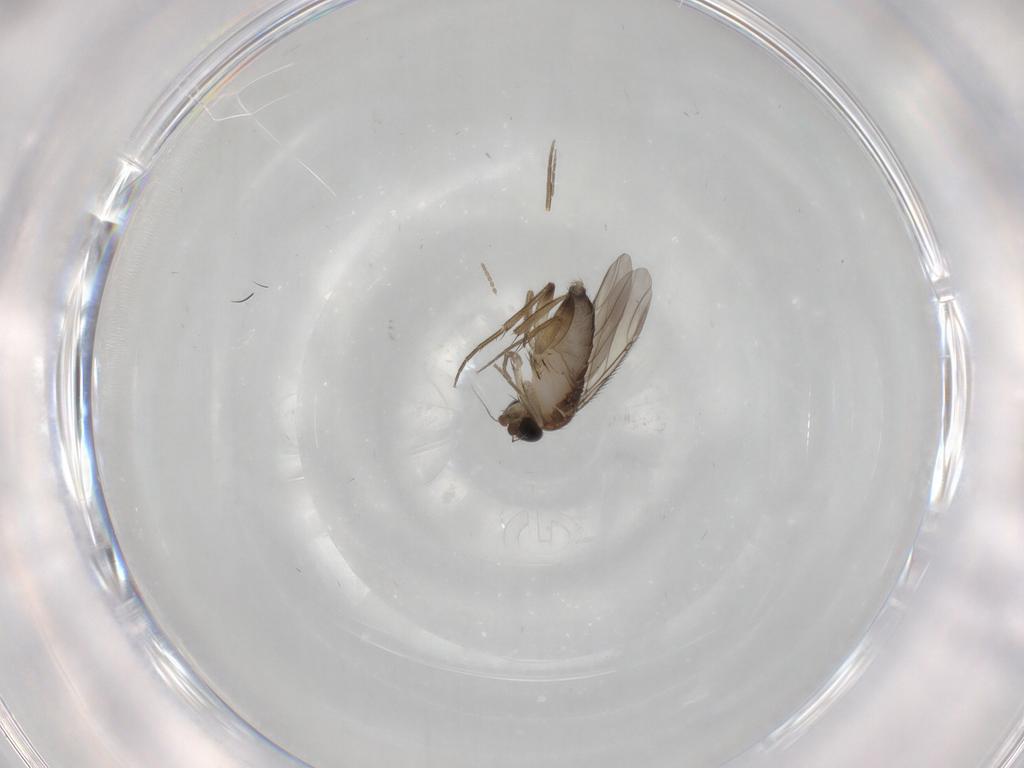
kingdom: Animalia
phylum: Arthropoda
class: Insecta
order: Diptera
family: Phoridae
